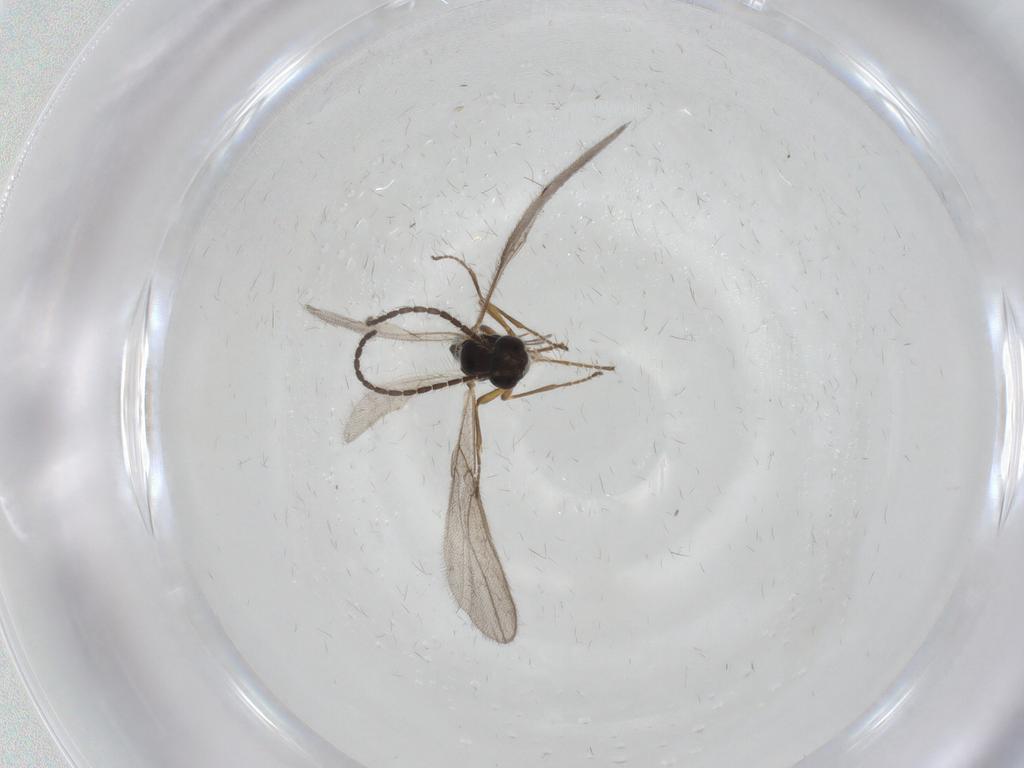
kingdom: Animalia
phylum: Arthropoda
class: Insecta
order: Hymenoptera
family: Braconidae
